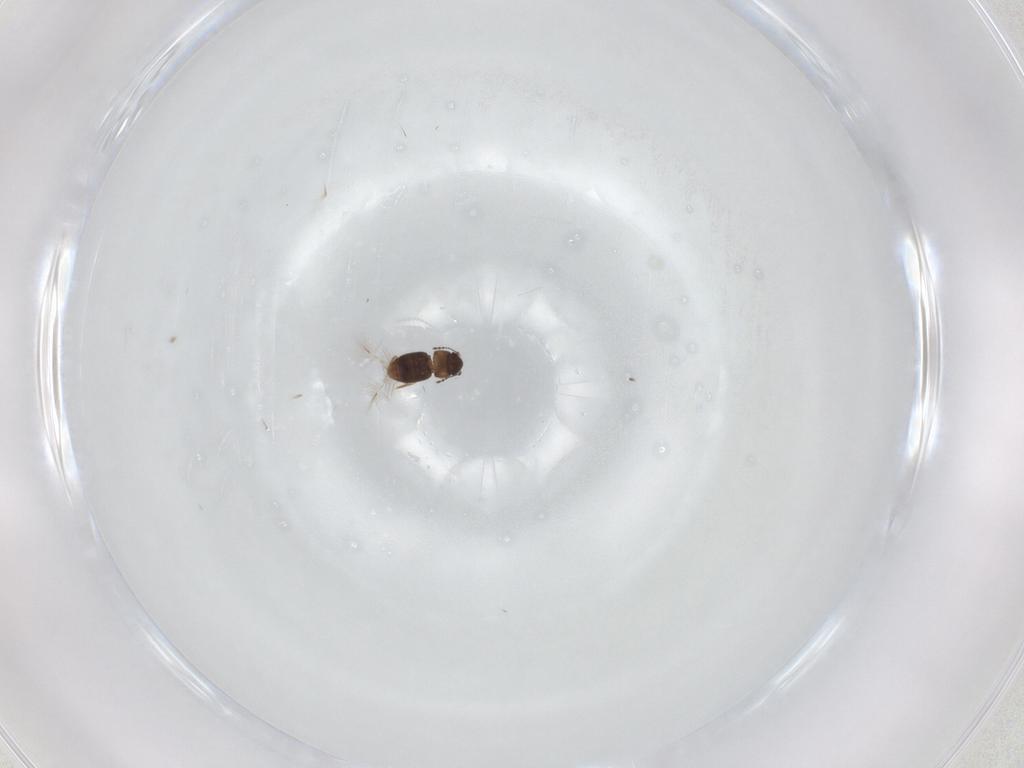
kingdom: Animalia
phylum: Arthropoda
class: Insecta
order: Coleoptera
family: Ptiliidae
